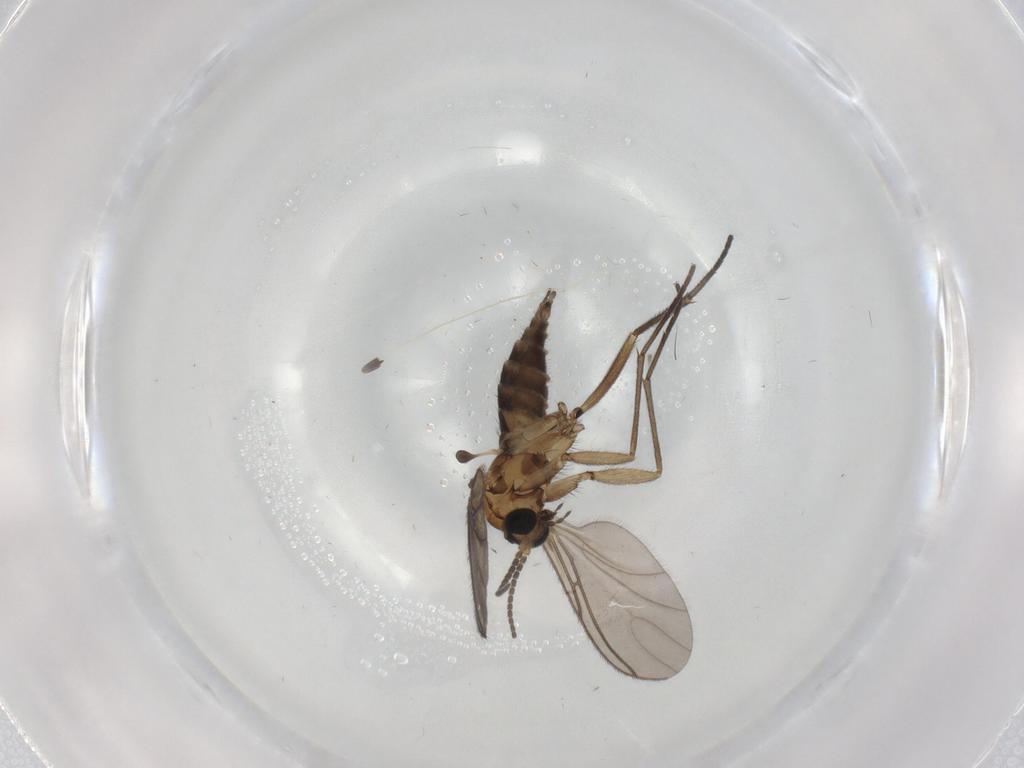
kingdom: Animalia
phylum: Arthropoda
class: Insecta
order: Diptera
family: Sciaridae
